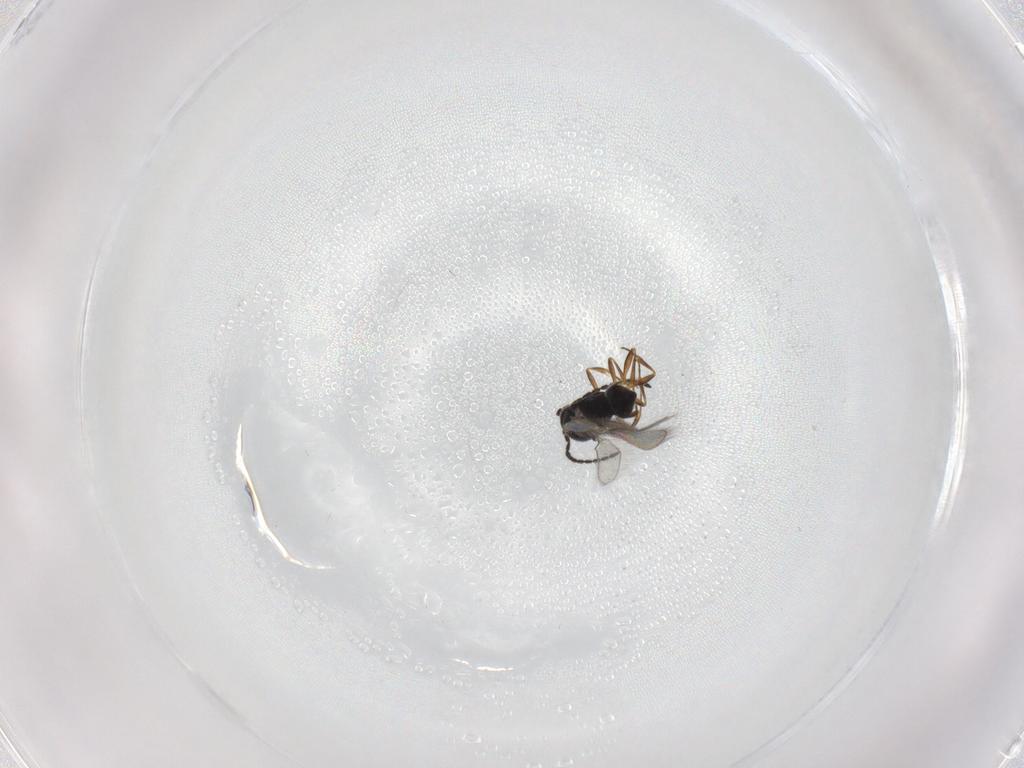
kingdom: Animalia
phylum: Arthropoda
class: Insecta
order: Hymenoptera
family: Scelionidae
